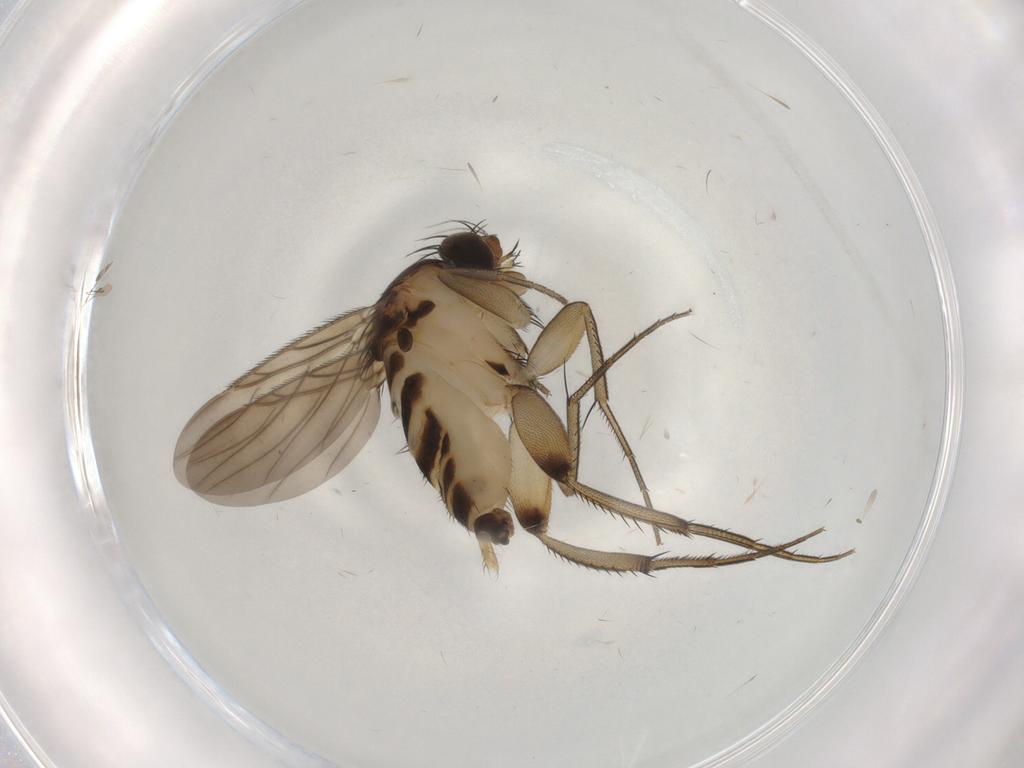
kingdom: Animalia
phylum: Arthropoda
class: Insecta
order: Diptera
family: Phoridae
